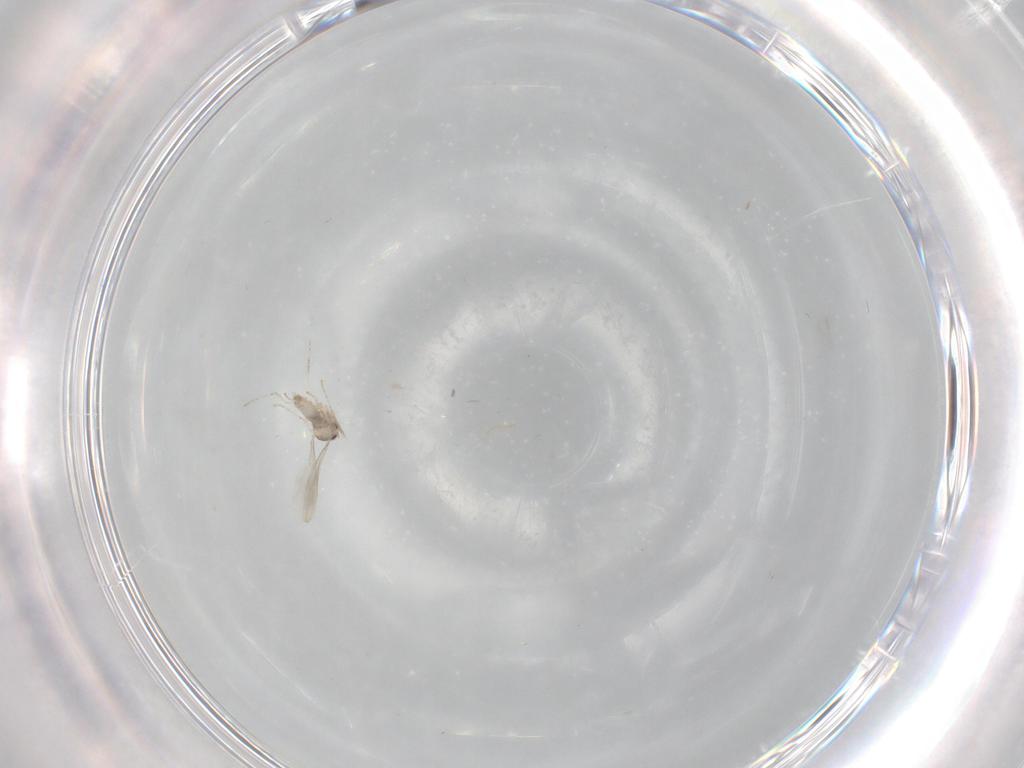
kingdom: Animalia
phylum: Arthropoda
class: Insecta
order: Diptera
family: Cecidomyiidae
